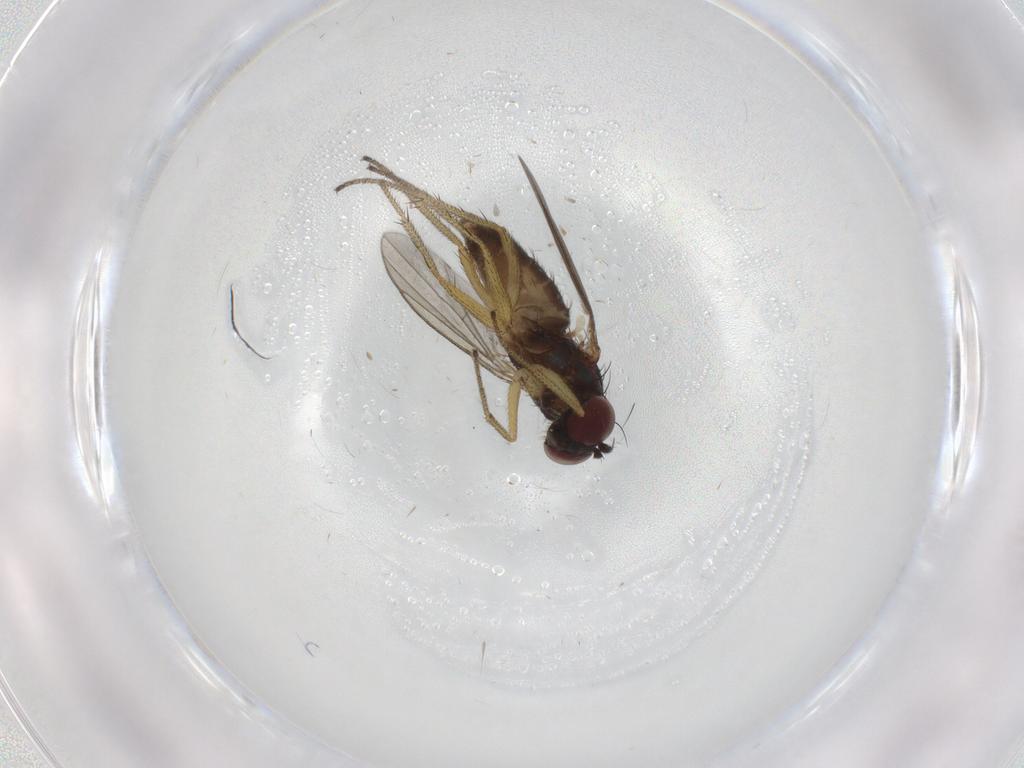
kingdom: Animalia
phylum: Arthropoda
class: Insecta
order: Diptera
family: Dolichopodidae
